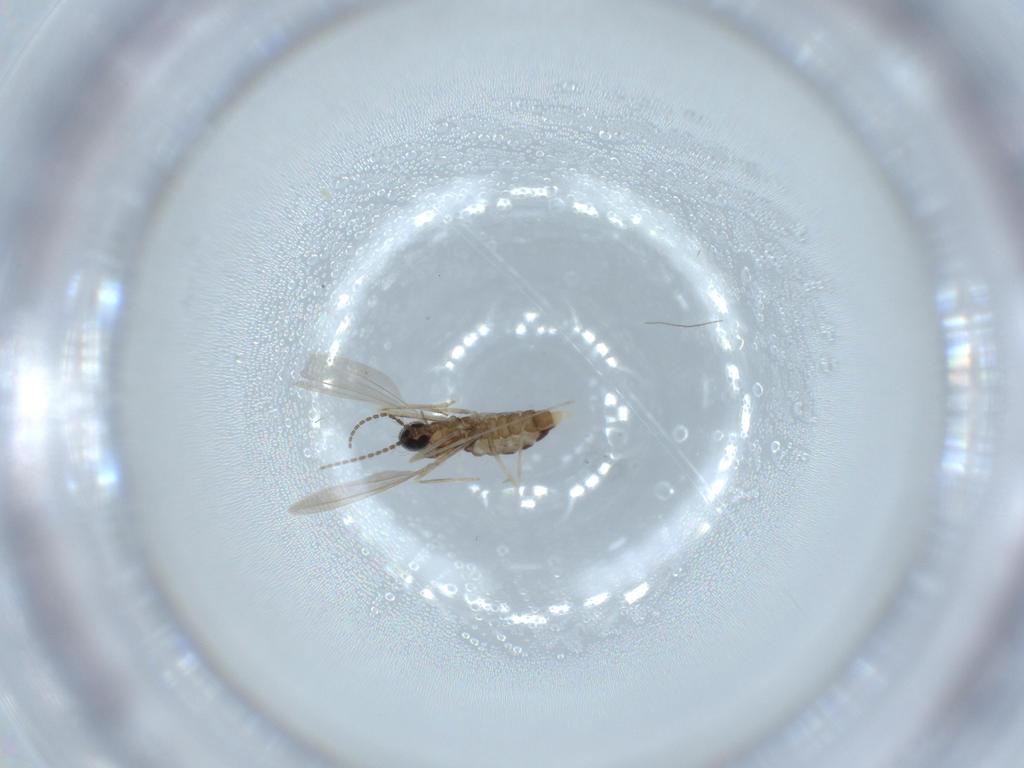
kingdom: Animalia
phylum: Arthropoda
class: Insecta
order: Diptera
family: Cecidomyiidae
